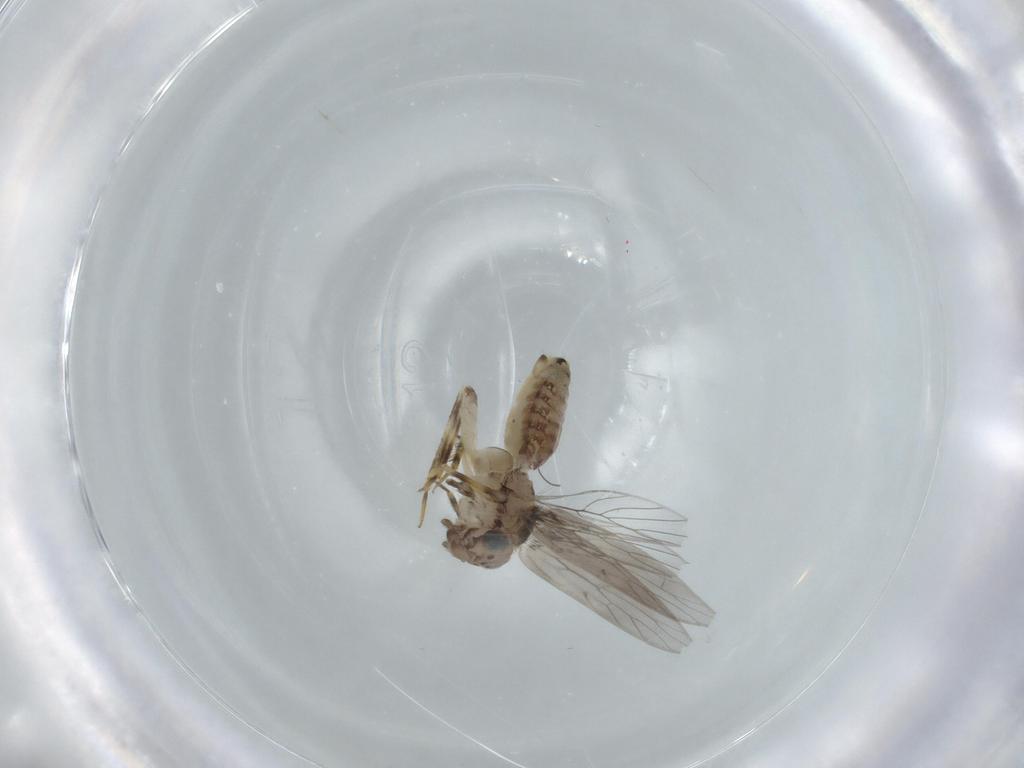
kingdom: Animalia
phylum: Arthropoda
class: Insecta
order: Psocodea
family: Lepidopsocidae
